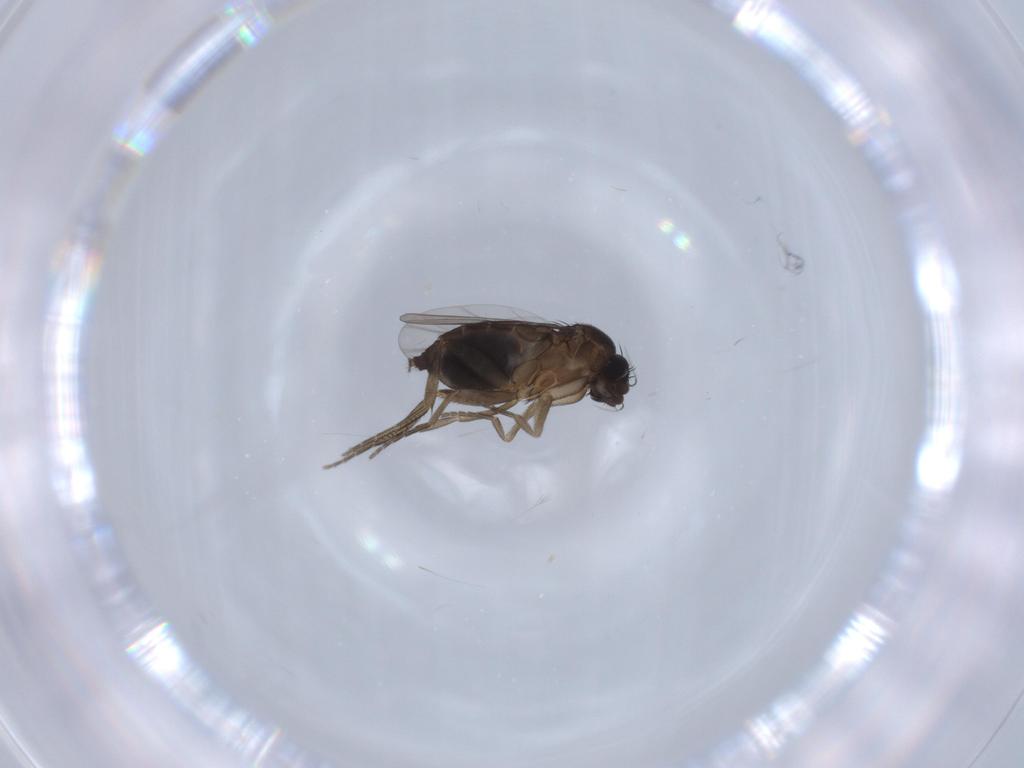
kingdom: Animalia
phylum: Arthropoda
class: Insecta
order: Diptera
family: Phoridae
